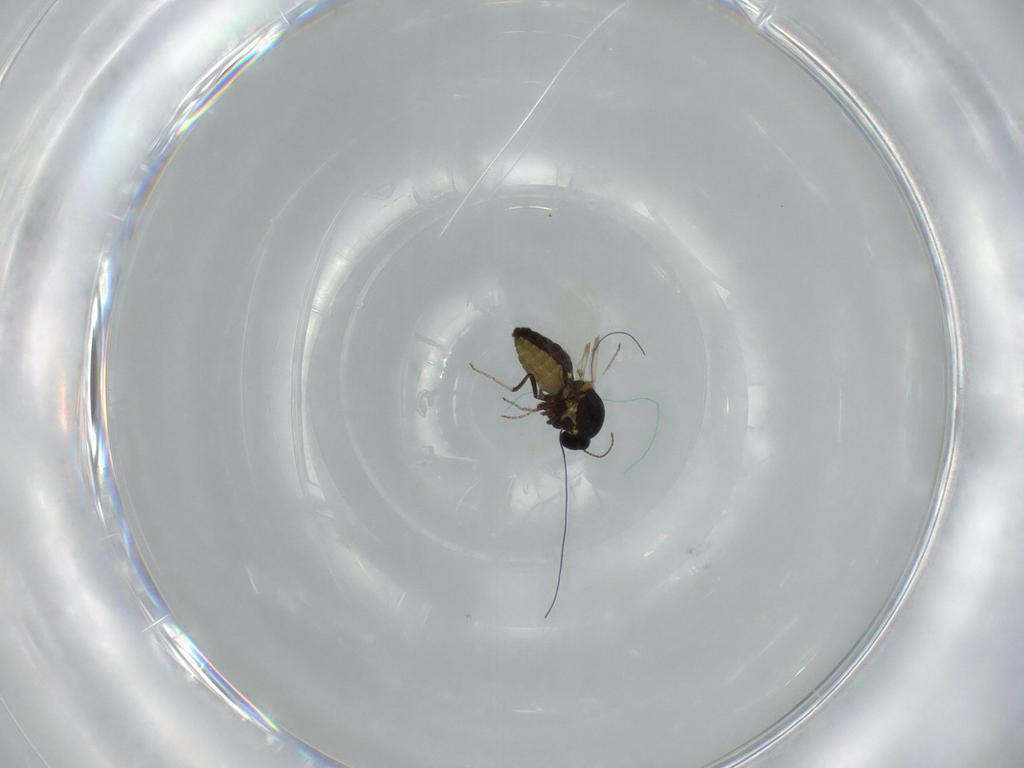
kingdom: Animalia
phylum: Arthropoda
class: Insecta
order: Diptera
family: Ceratopogonidae
